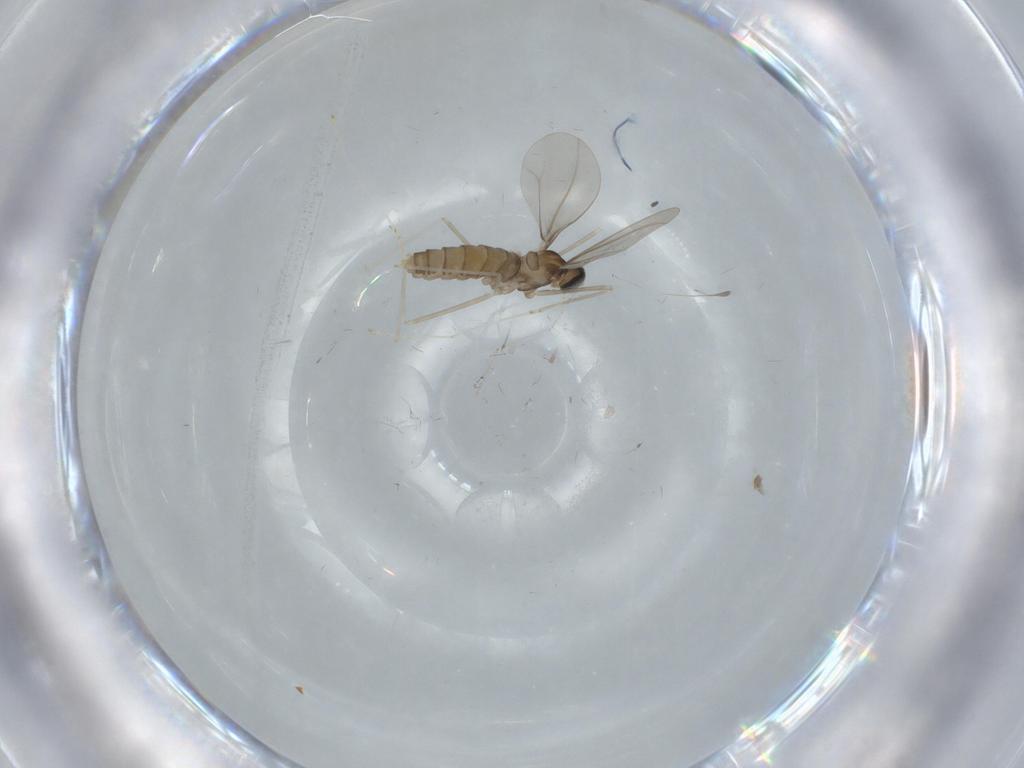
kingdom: Animalia
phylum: Arthropoda
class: Insecta
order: Diptera
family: Cecidomyiidae
